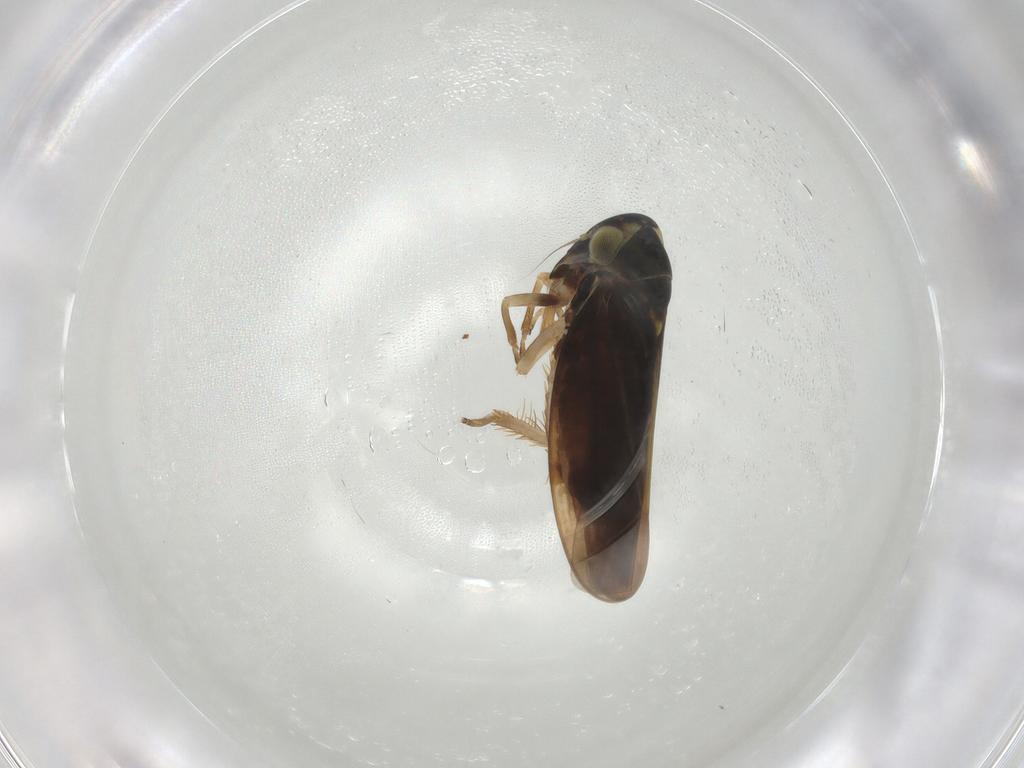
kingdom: Animalia
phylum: Arthropoda
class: Insecta
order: Hemiptera
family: Cicadellidae
